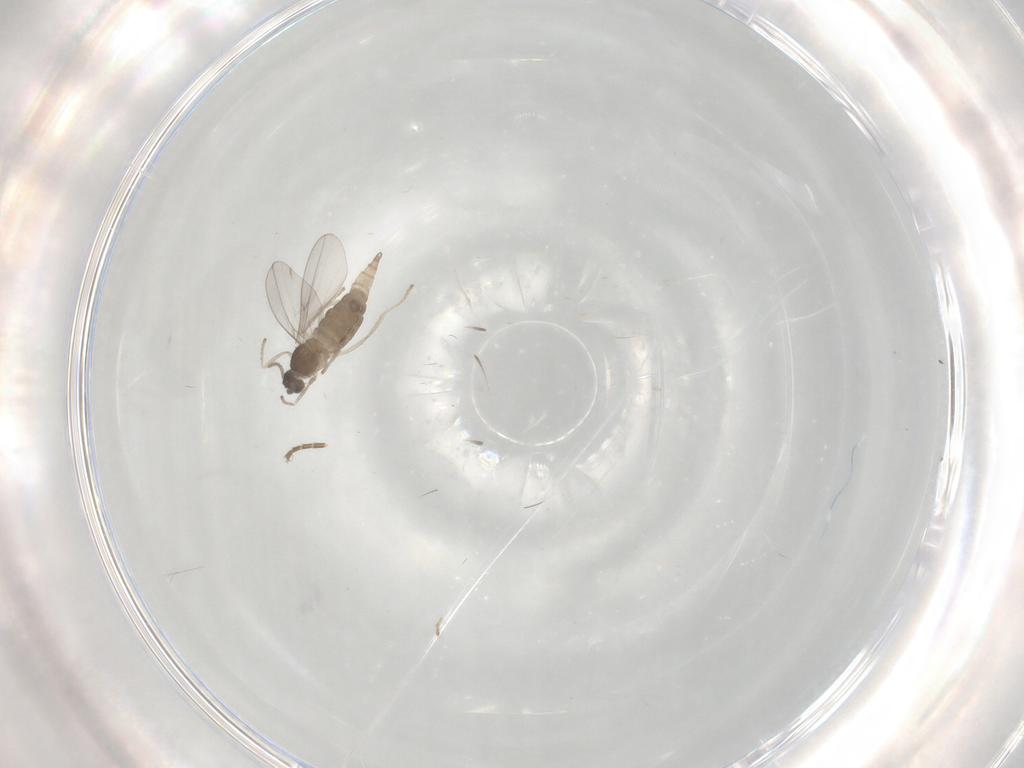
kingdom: Animalia
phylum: Arthropoda
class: Insecta
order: Diptera
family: Cecidomyiidae
